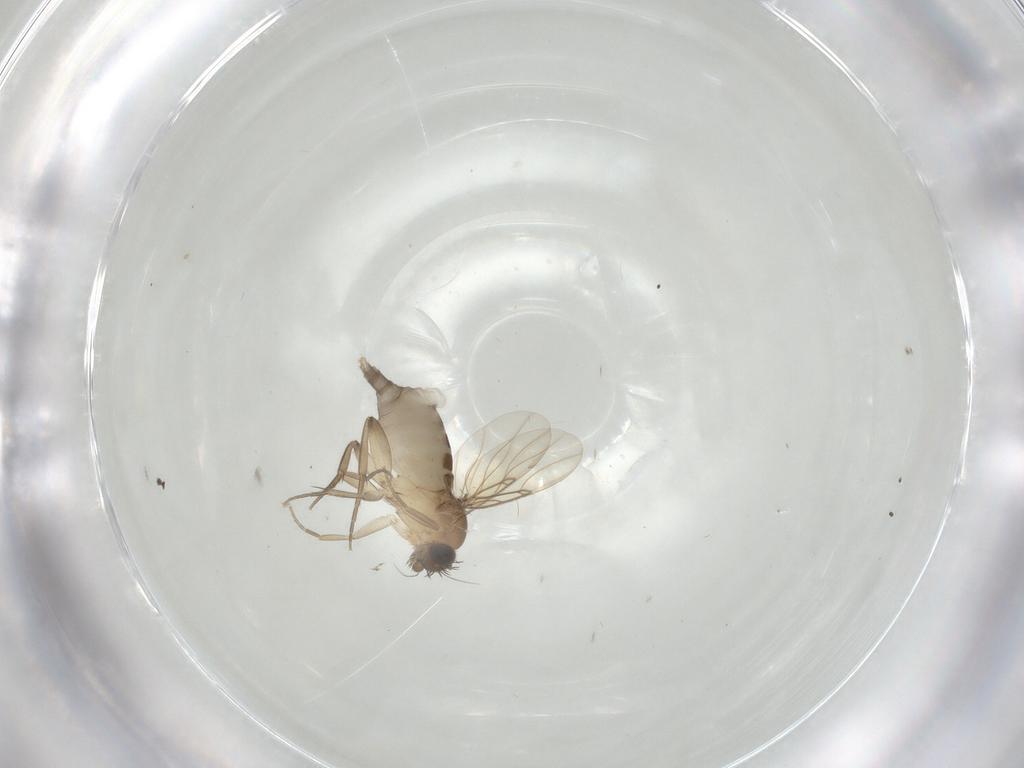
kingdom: Animalia
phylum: Arthropoda
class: Insecta
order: Diptera
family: Phoridae
